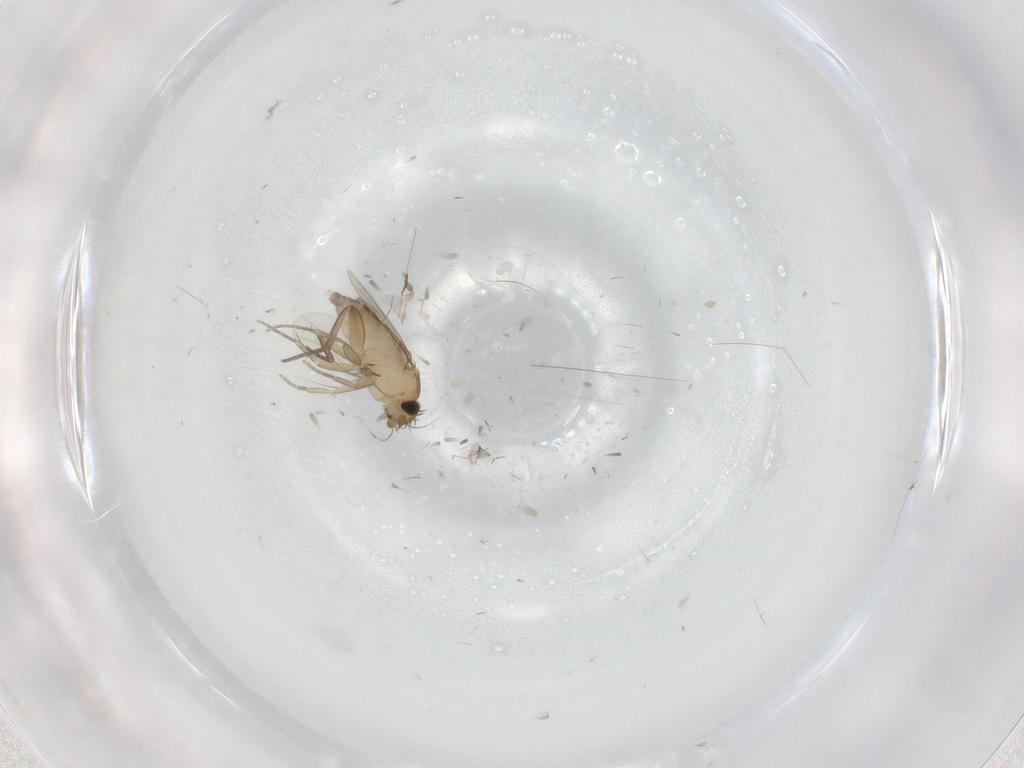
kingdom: Animalia
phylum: Arthropoda
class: Insecta
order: Diptera
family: Phoridae
